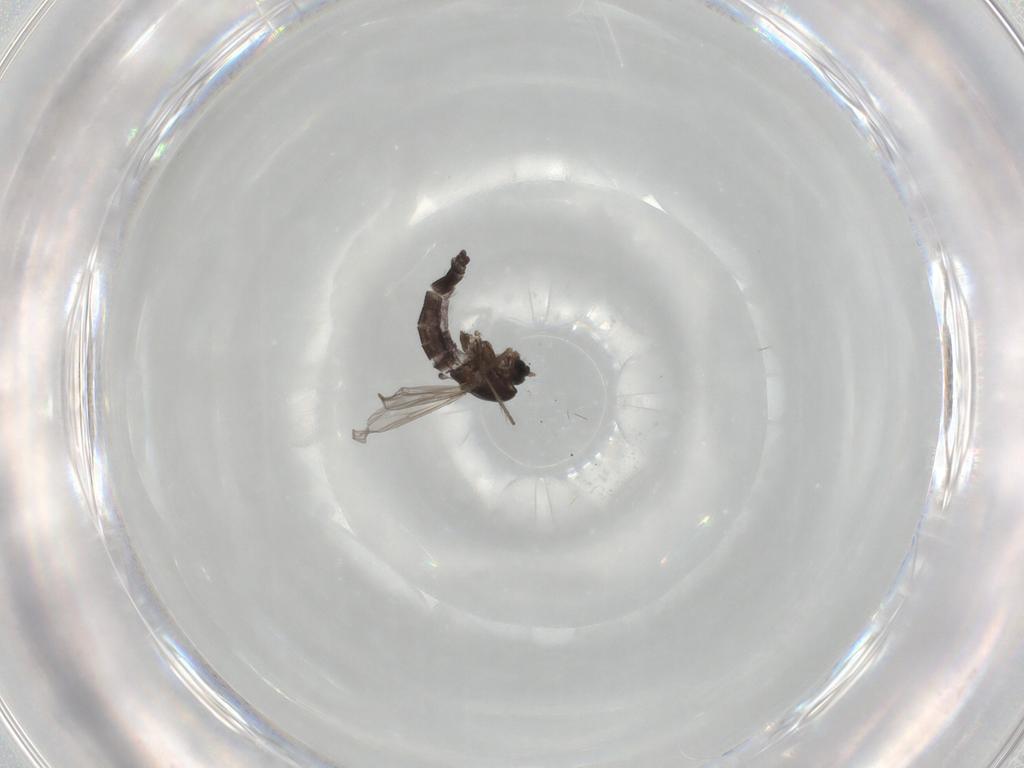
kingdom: Animalia
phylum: Arthropoda
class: Insecta
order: Diptera
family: Chironomidae
